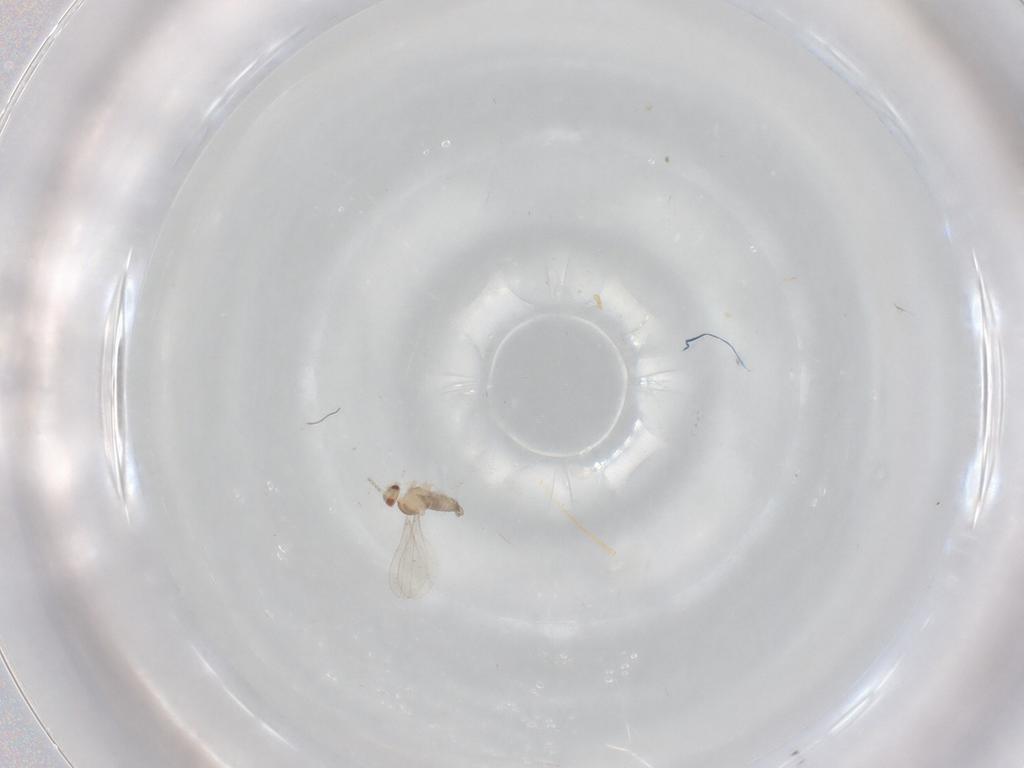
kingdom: Animalia
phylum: Arthropoda
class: Insecta
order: Diptera
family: Cecidomyiidae
